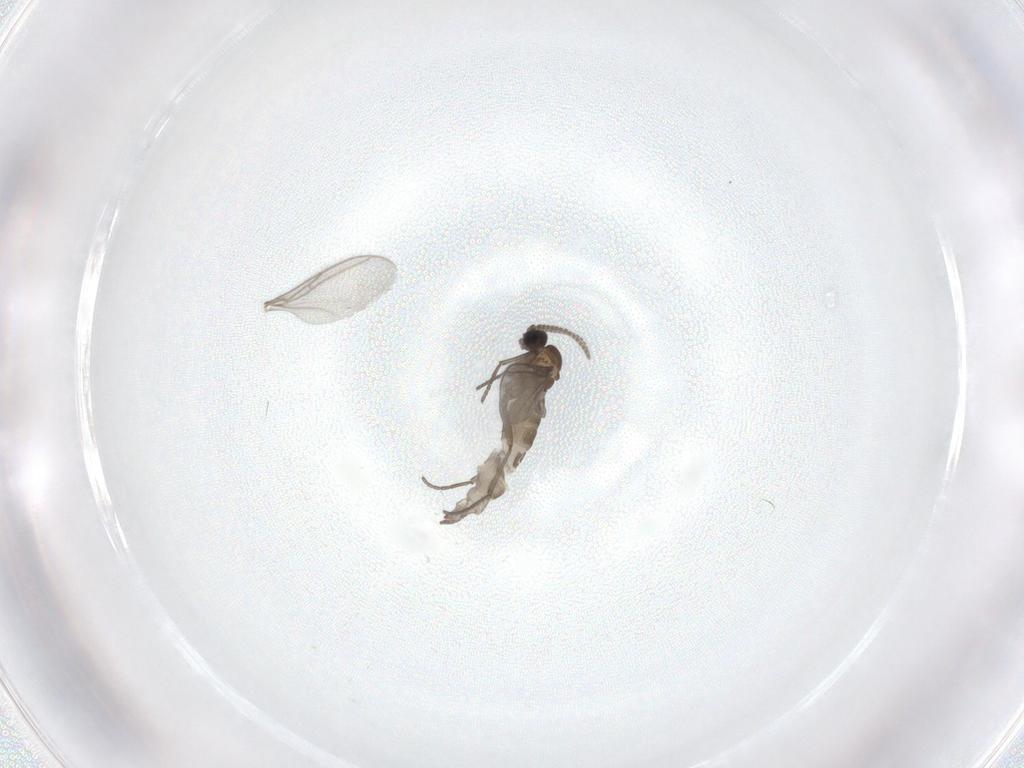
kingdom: Animalia
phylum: Arthropoda
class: Insecta
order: Diptera
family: Sciaridae
